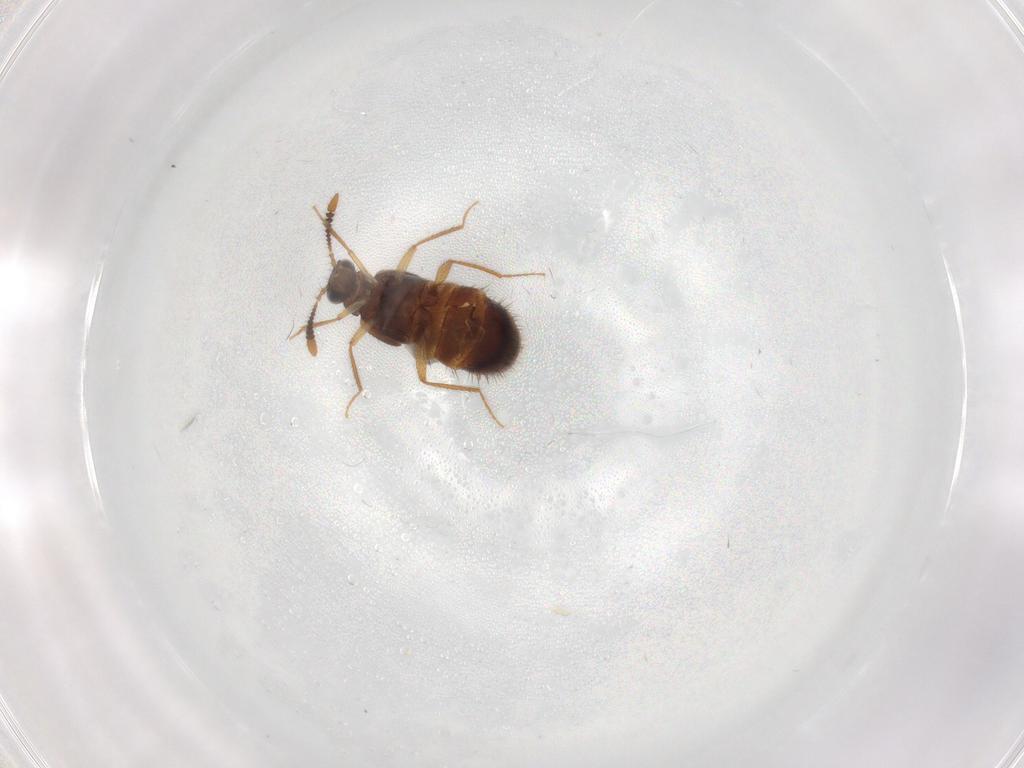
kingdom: Animalia
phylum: Arthropoda
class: Insecta
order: Coleoptera
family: Staphylinidae
